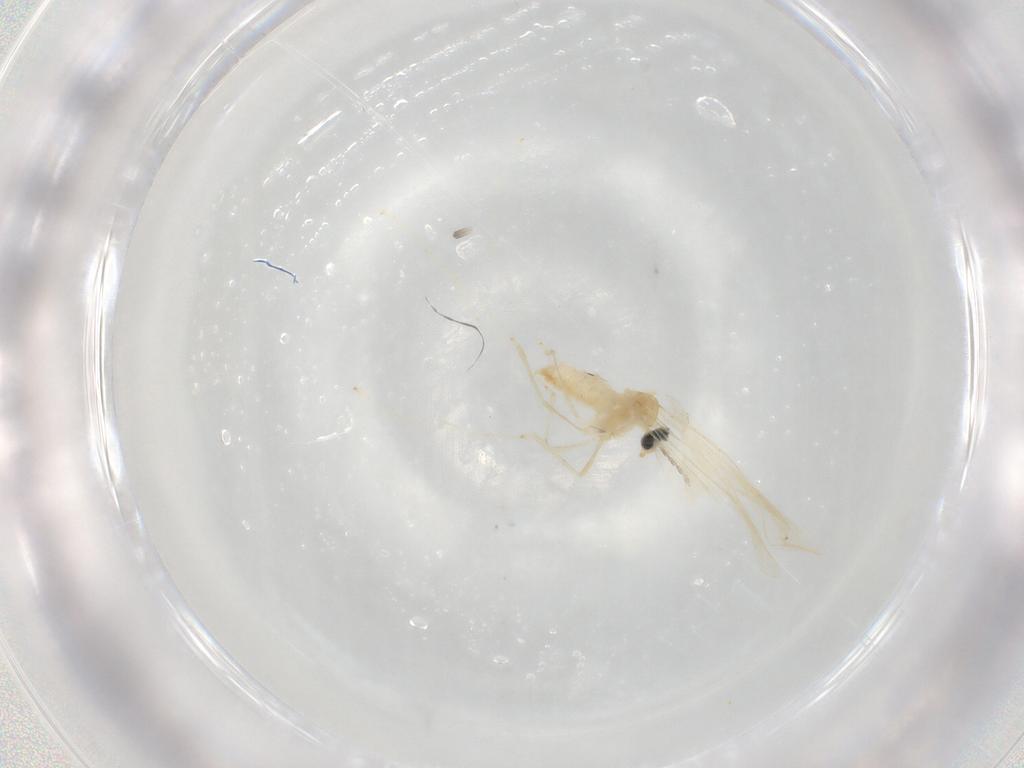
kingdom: Animalia
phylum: Arthropoda
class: Insecta
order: Diptera
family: Cecidomyiidae
